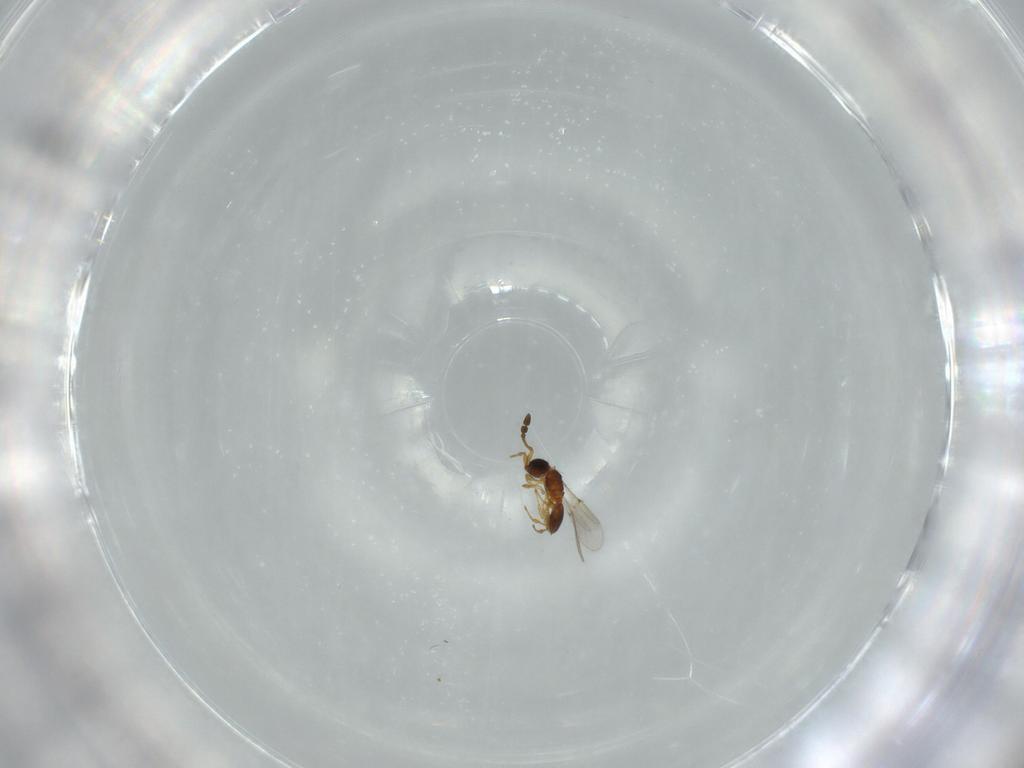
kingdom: Animalia
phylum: Arthropoda
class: Insecta
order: Hymenoptera
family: Diapriidae
